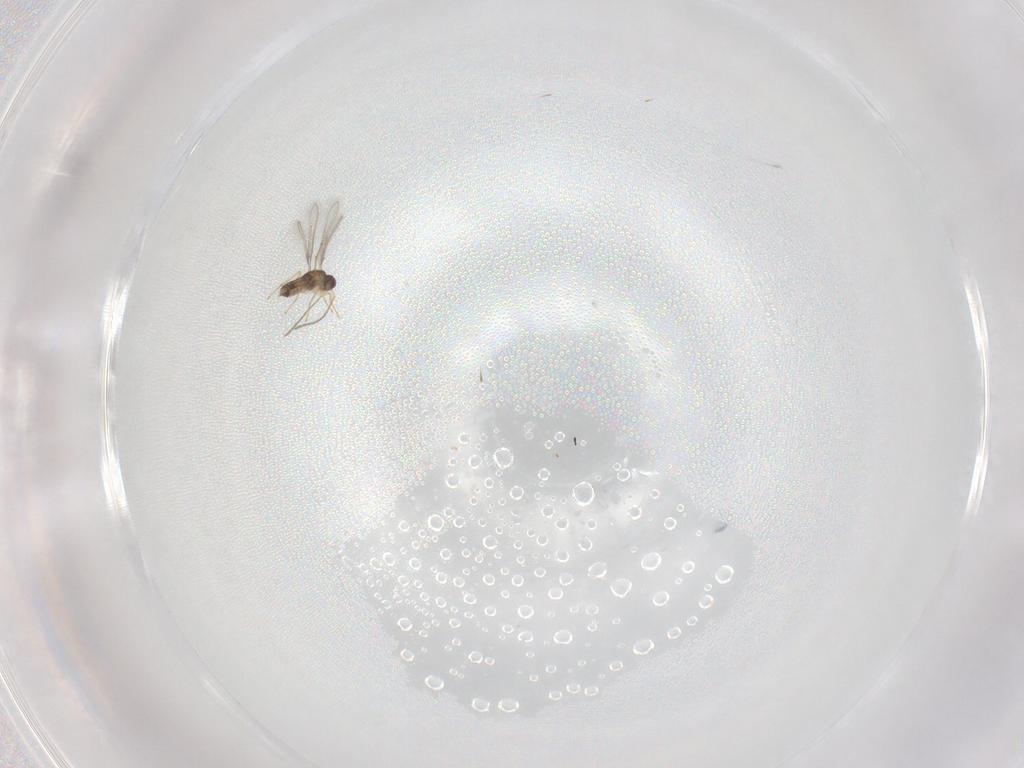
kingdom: Animalia
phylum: Arthropoda
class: Insecta
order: Hymenoptera
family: Mymaridae
